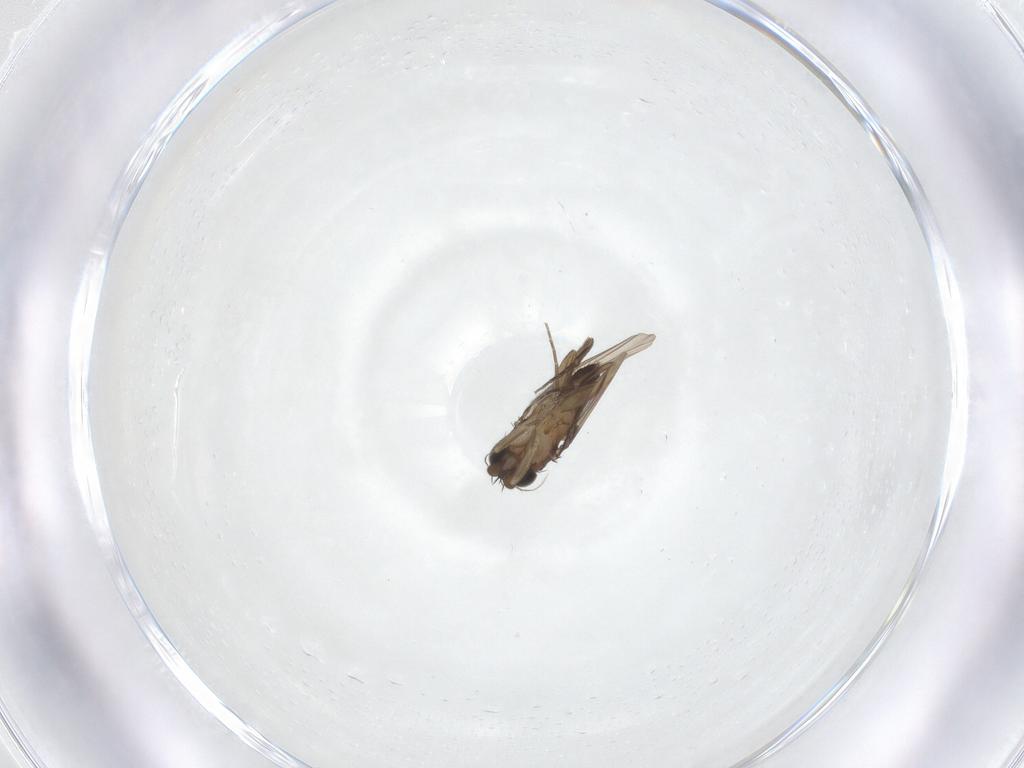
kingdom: Animalia
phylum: Arthropoda
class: Insecta
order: Diptera
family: Phoridae
